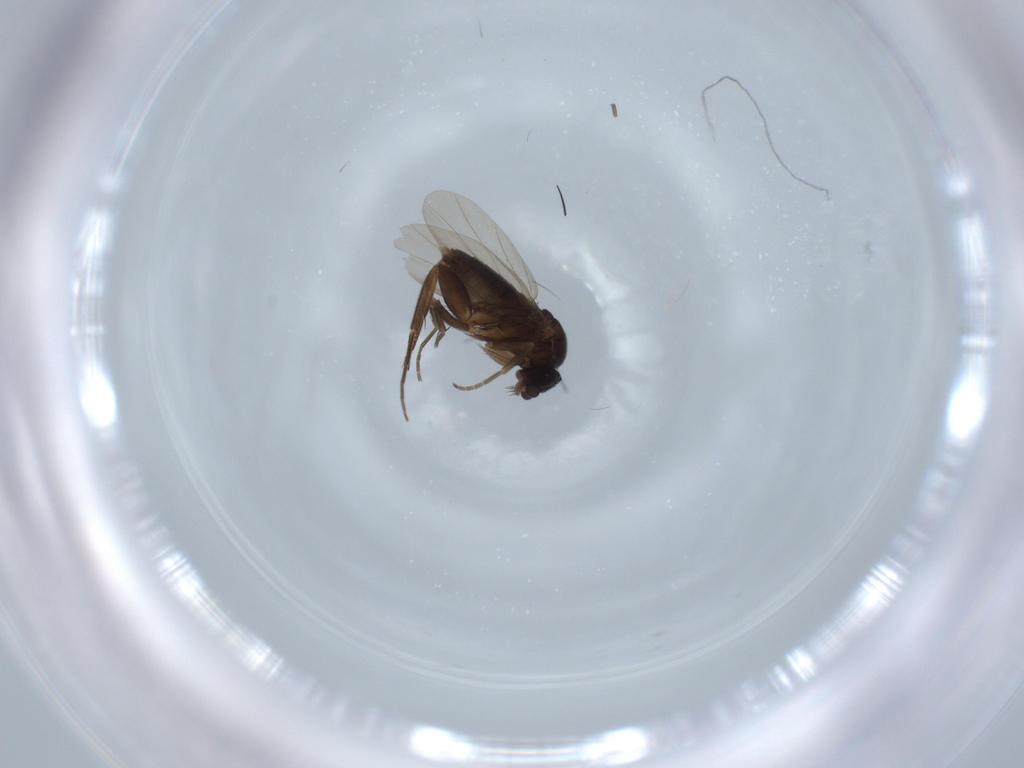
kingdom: Animalia
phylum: Arthropoda
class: Insecta
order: Diptera
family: Phoridae
